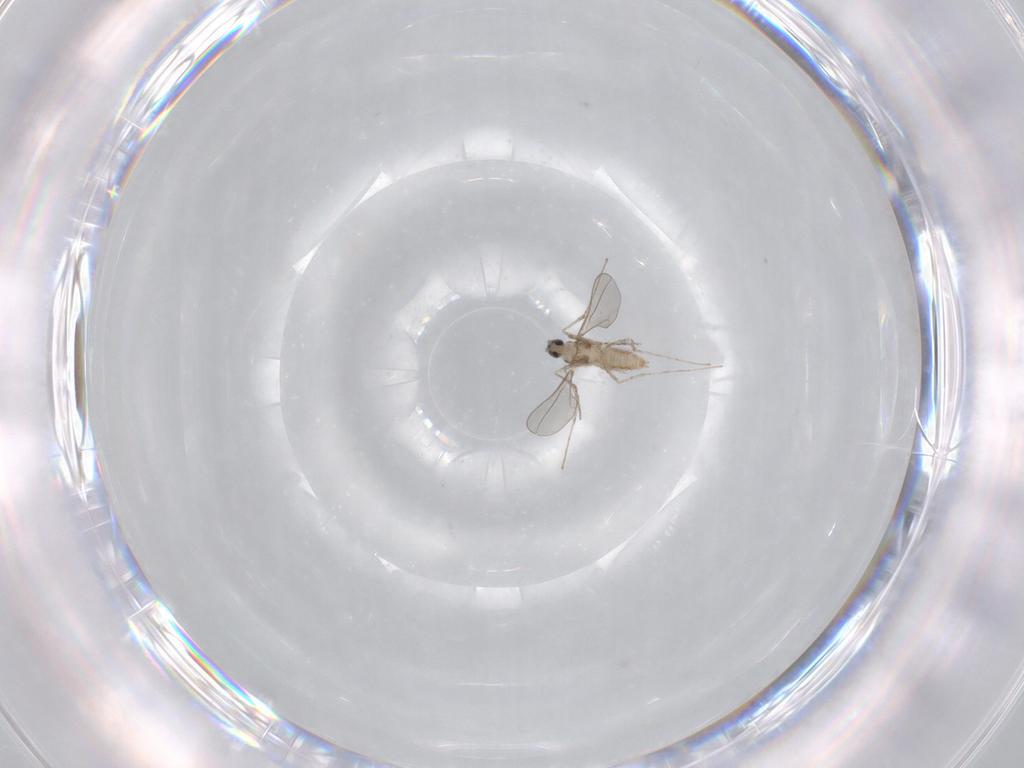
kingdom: Animalia
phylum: Arthropoda
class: Insecta
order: Diptera
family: Cecidomyiidae
